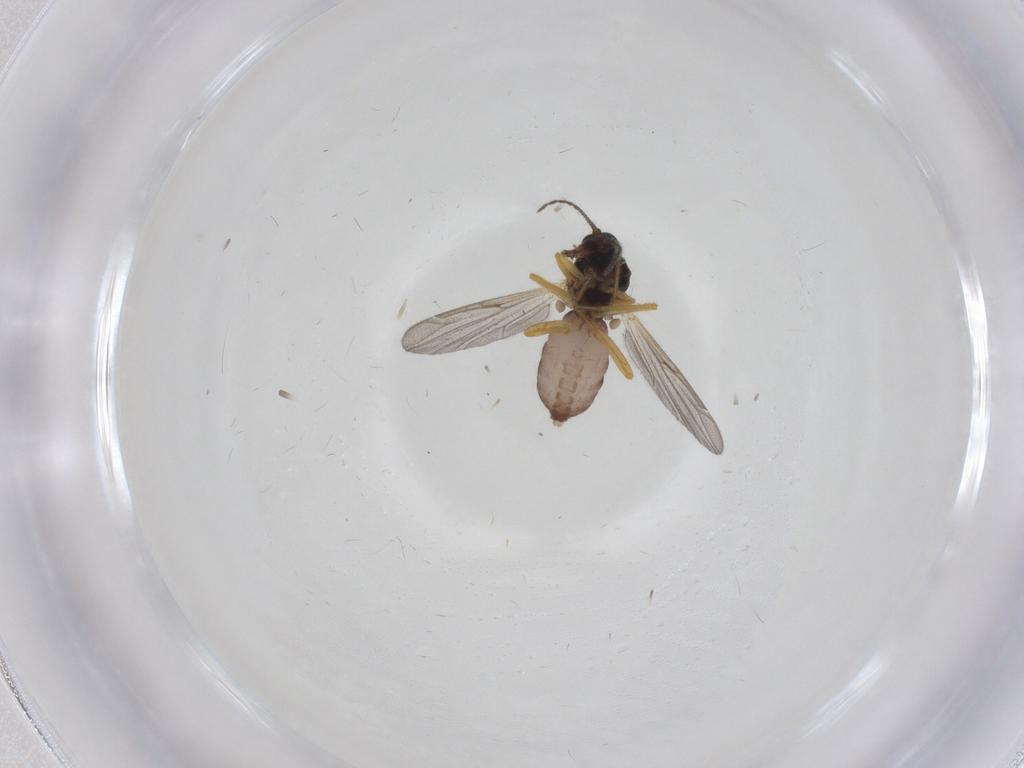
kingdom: Animalia
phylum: Arthropoda
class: Insecta
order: Diptera
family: Ceratopogonidae
